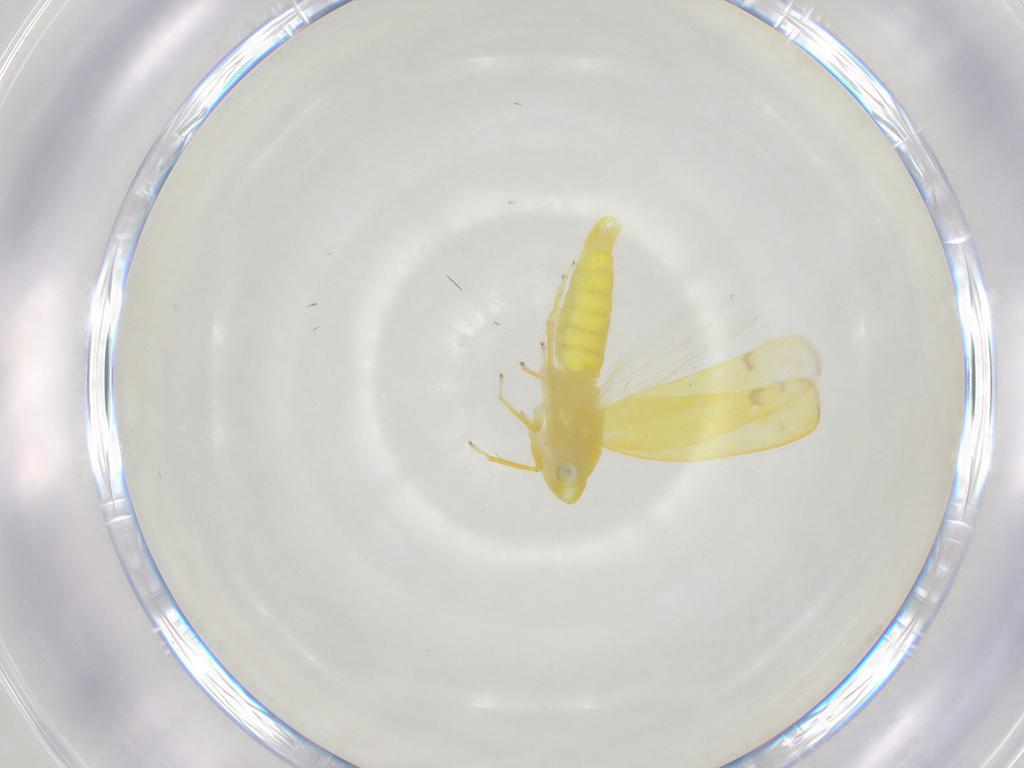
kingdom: Animalia
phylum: Arthropoda
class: Insecta
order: Hemiptera
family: Cicadellidae
